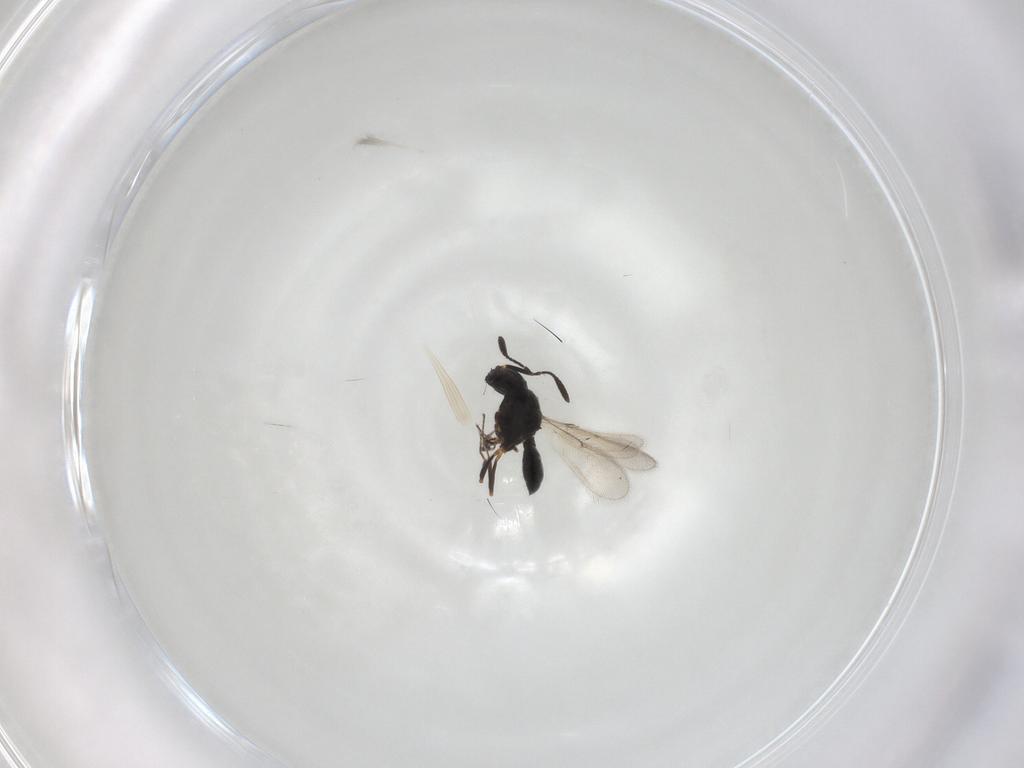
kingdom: Animalia
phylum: Arthropoda
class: Insecta
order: Hymenoptera
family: Scelionidae
